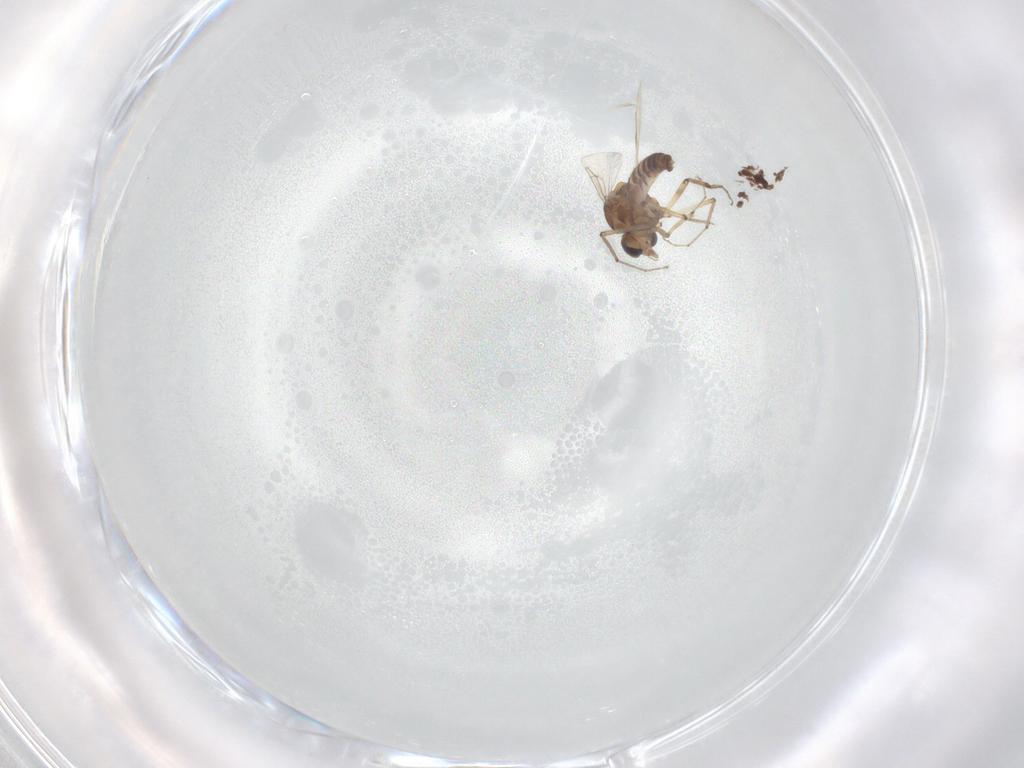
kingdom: Animalia
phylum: Arthropoda
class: Insecta
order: Diptera
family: Ceratopogonidae
